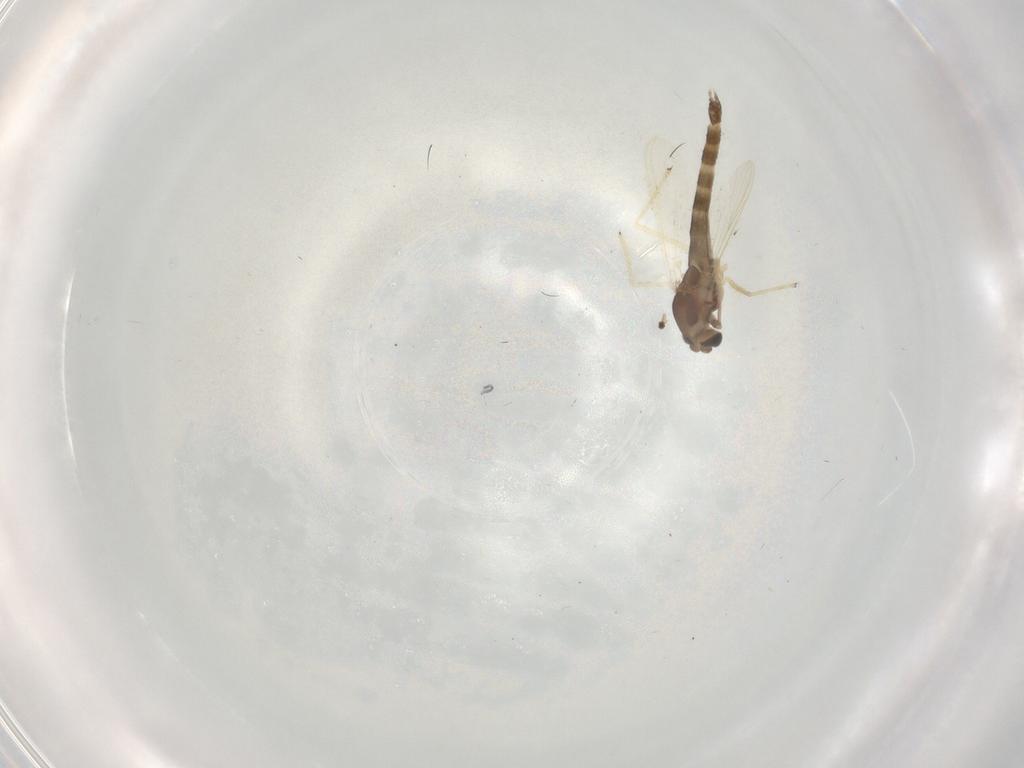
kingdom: Animalia
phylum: Arthropoda
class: Insecta
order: Diptera
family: Chironomidae
